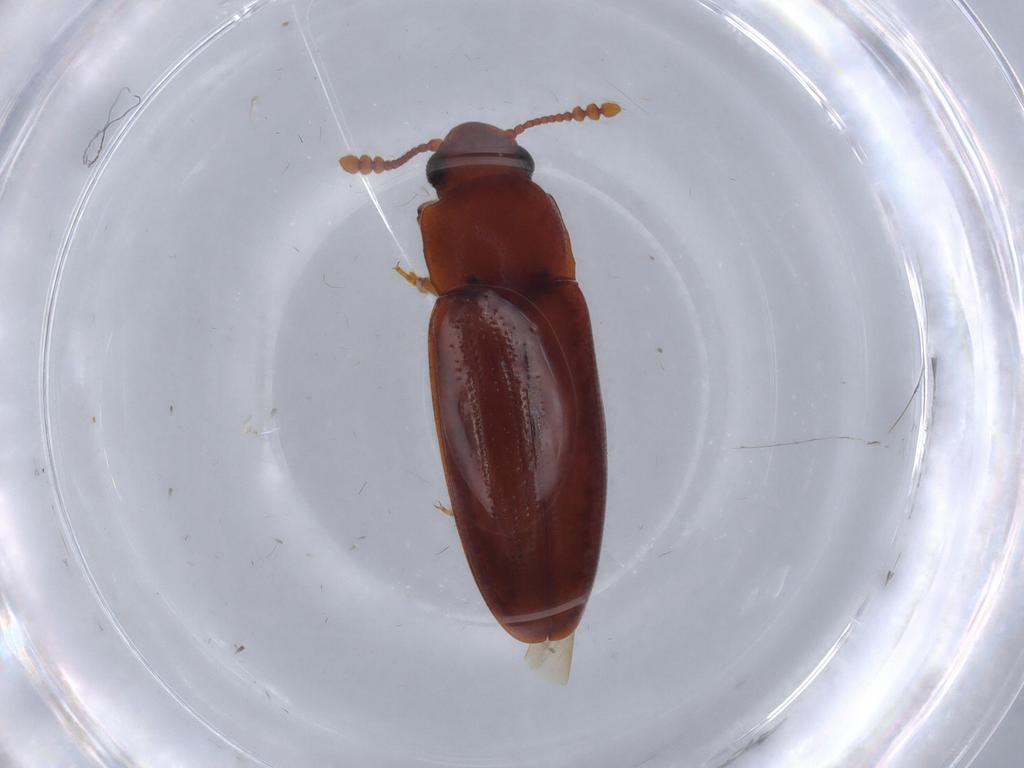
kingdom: Animalia
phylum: Arthropoda
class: Insecta
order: Coleoptera
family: Erotylidae
